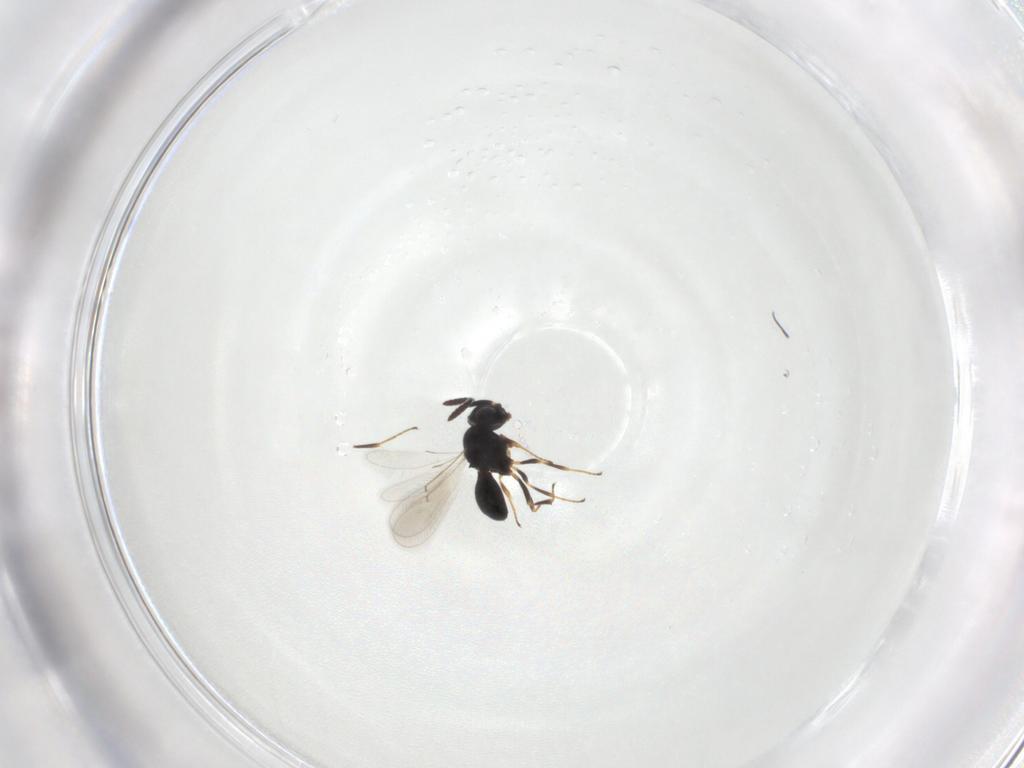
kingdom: Animalia
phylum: Arthropoda
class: Insecta
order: Hymenoptera
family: Scelionidae
